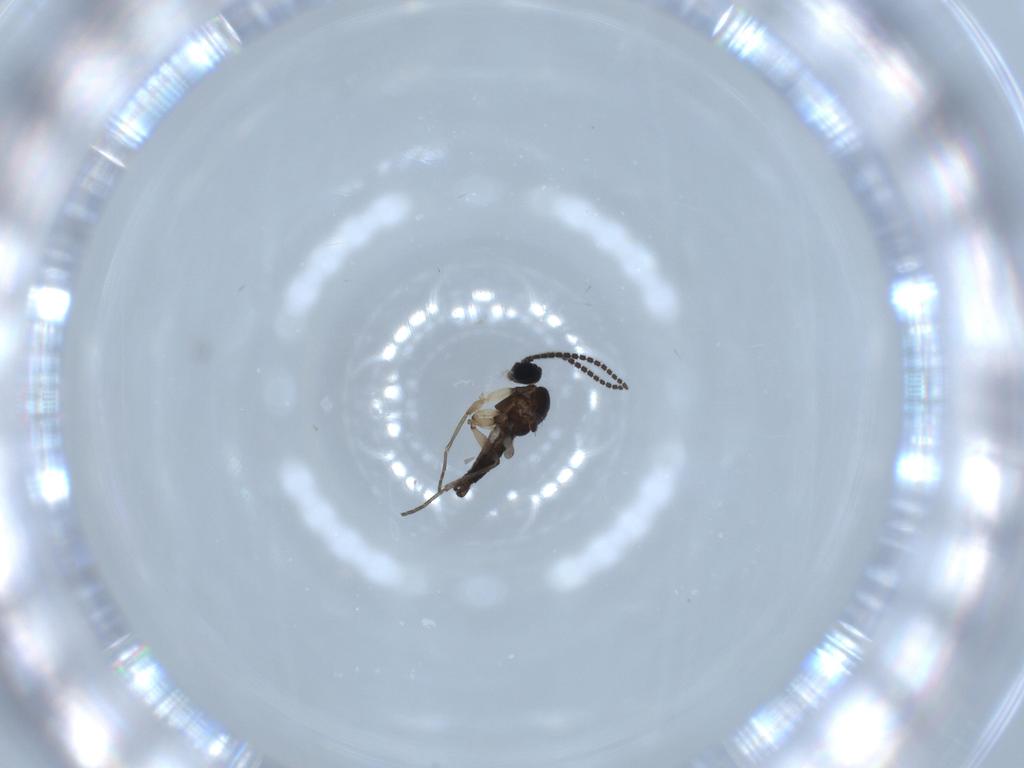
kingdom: Animalia
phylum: Arthropoda
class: Insecta
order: Diptera
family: Sciaridae
